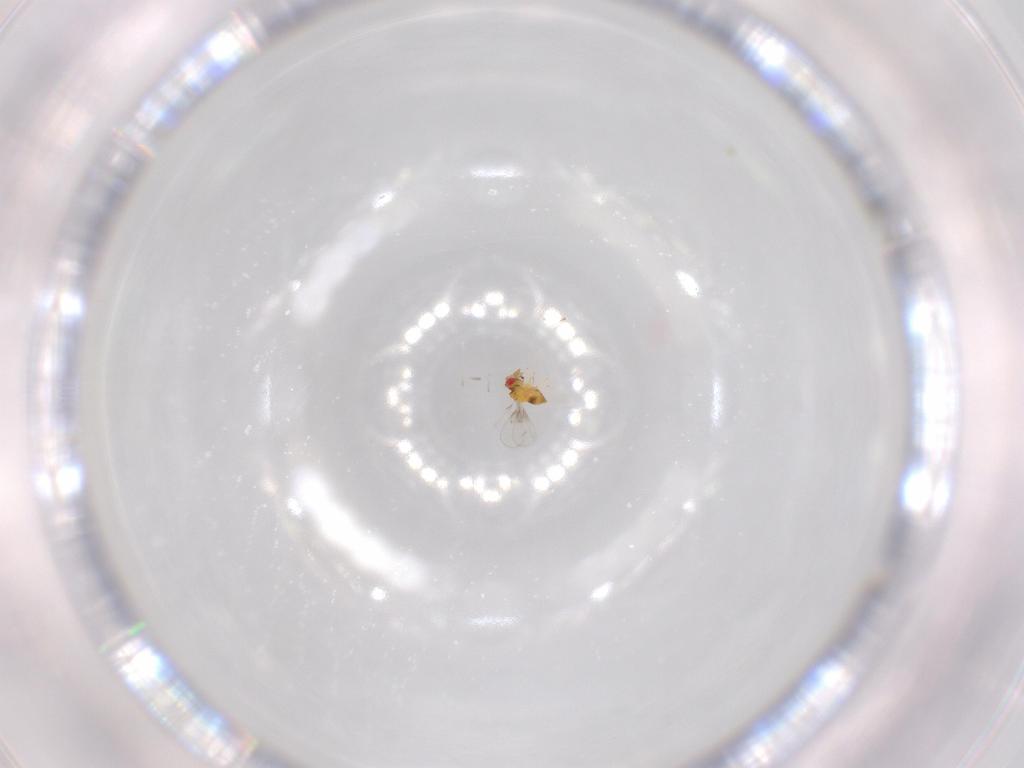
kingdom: Animalia
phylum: Arthropoda
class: Insecta
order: Hymenoptera
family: Trichogrammatidae
